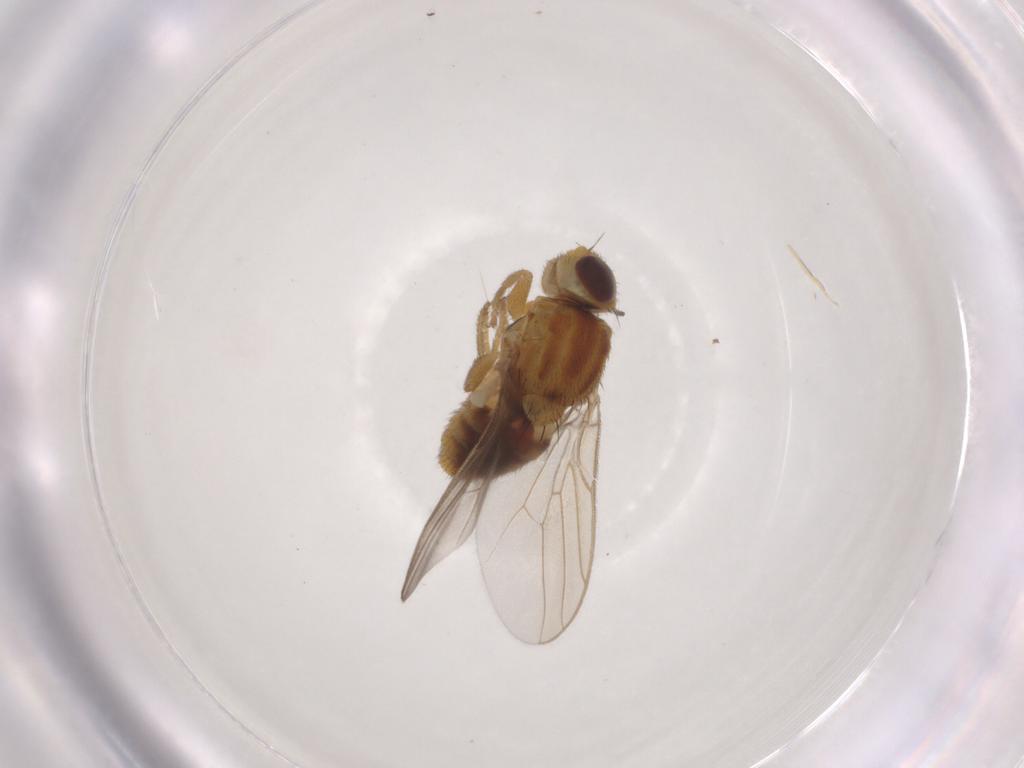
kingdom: Animalia
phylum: Arthropoda
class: Insecta
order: Diptera
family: Chloropidae
